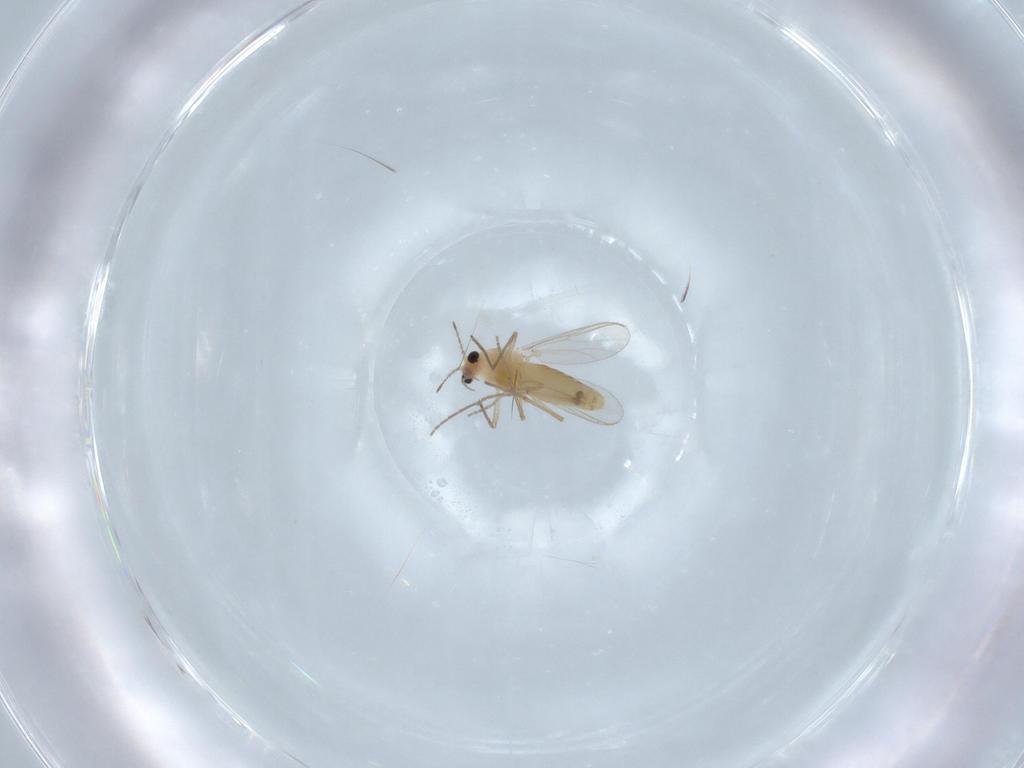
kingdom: Animalia
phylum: Arthropoda
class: Insecta
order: Diptera
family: Chironomidae
